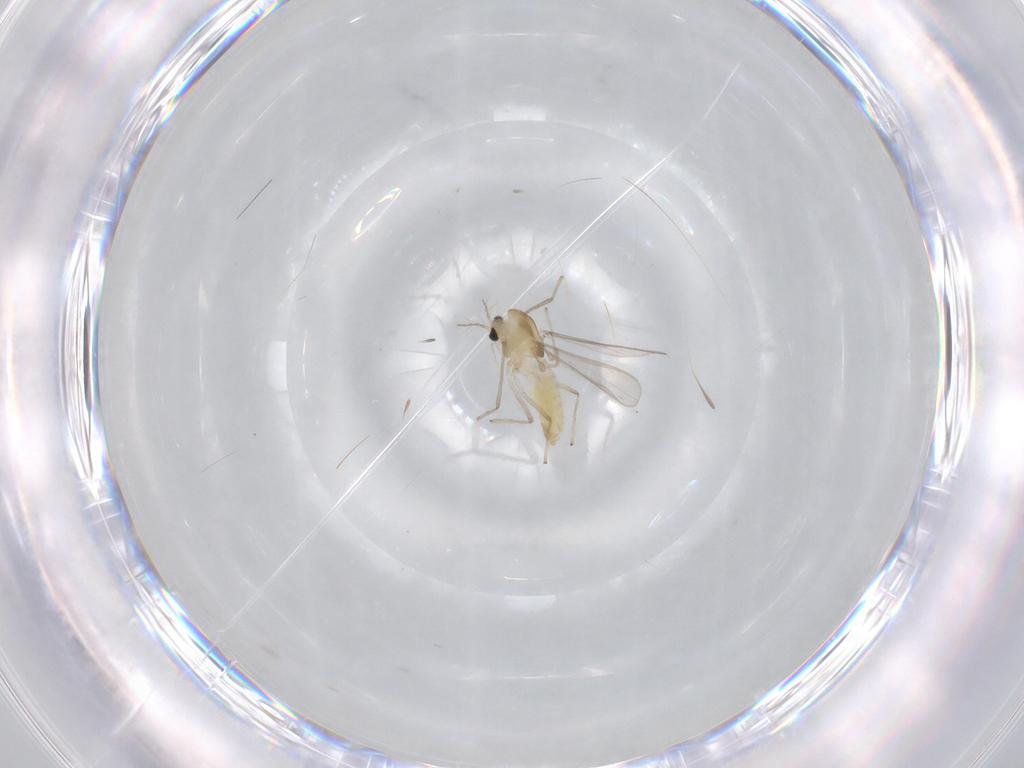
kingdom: Animalia
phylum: Arthropoda
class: Insecta
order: Diptera
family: Chironomidae
